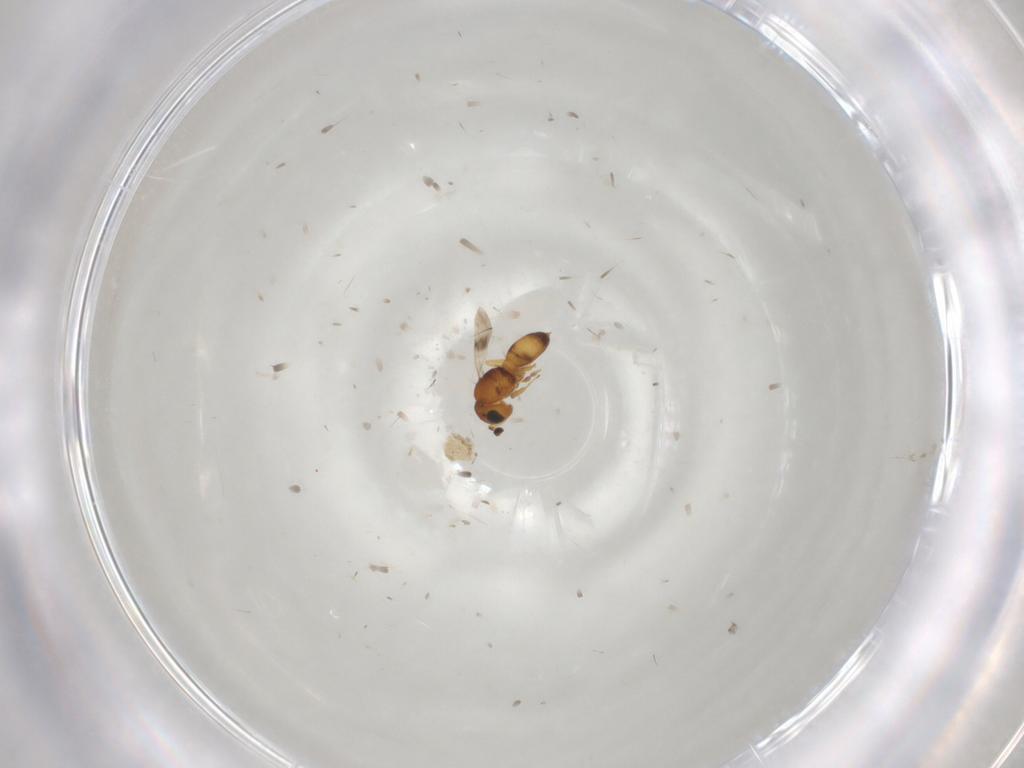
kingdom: Animalia
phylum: Arthropoda
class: Insecta
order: Hymenoptera
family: Scelionidae
